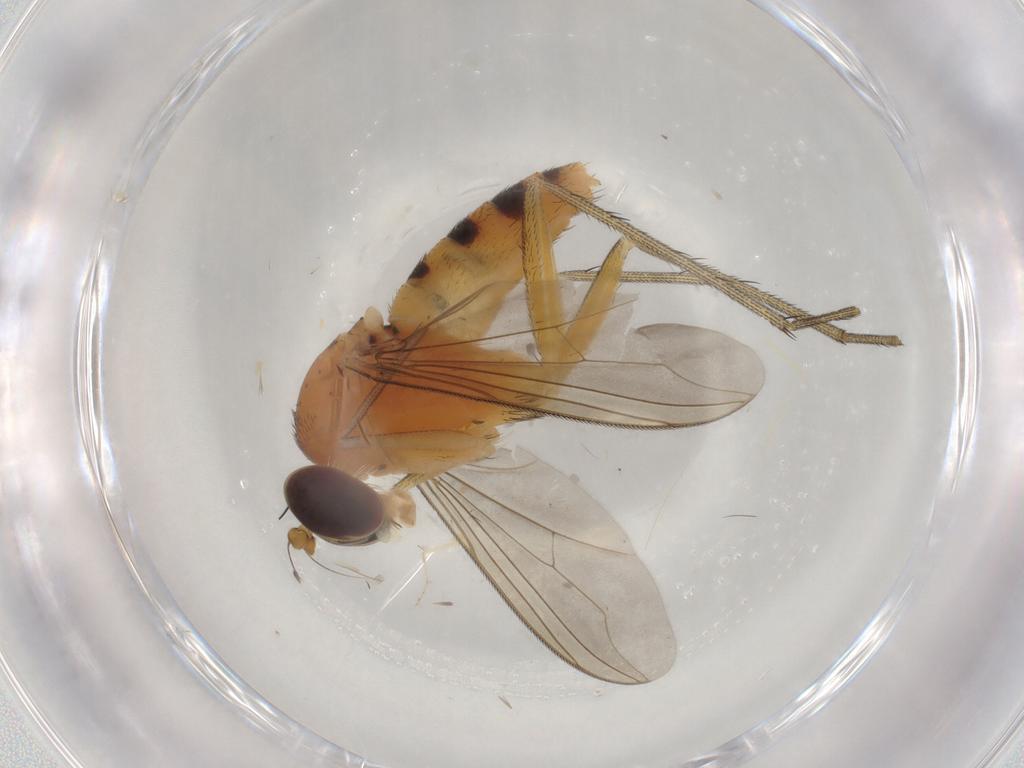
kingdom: Animalia
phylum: Arthropoda
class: Insecta
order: Diptera
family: Dolichopodidae
